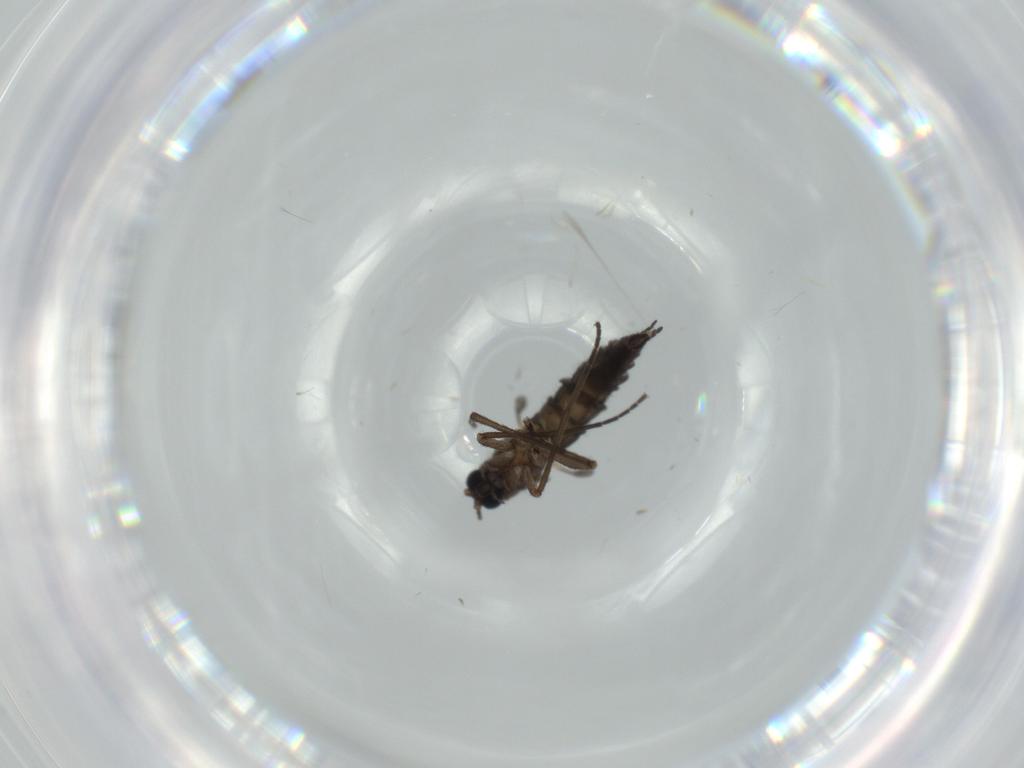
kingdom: Animalia
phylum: Arthropoda
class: Insecta
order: Diptera
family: Sciaridae
